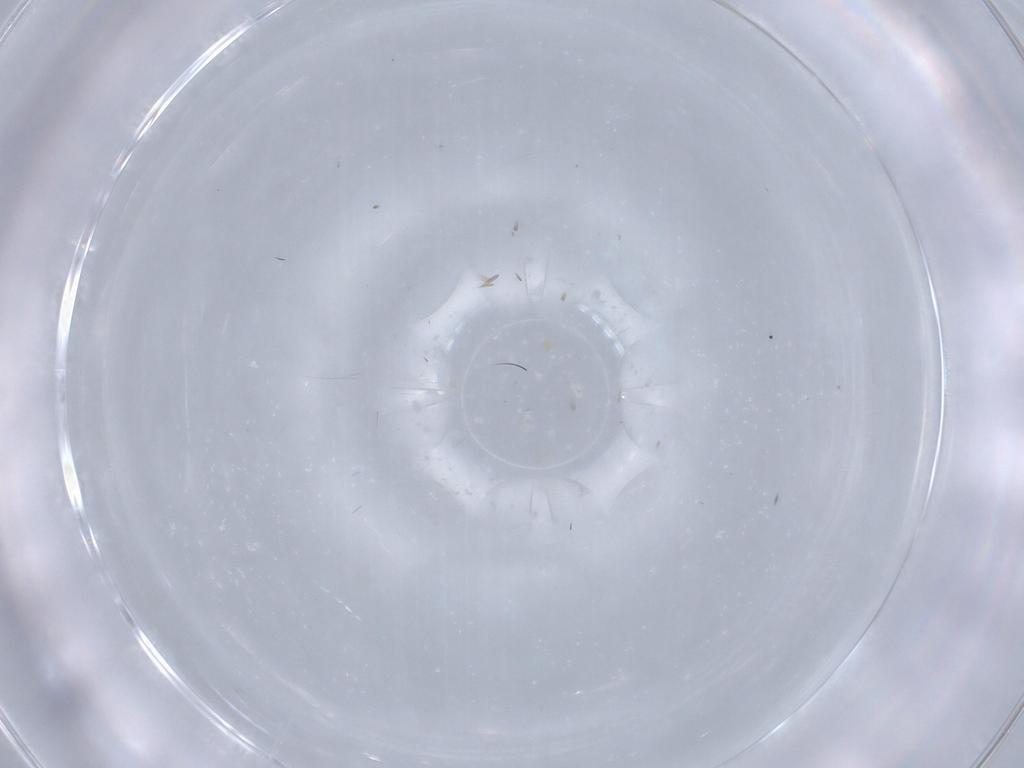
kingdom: Animalia
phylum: Arthropoda
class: Insecta
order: Hymenoptera
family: Mymarommatidae
